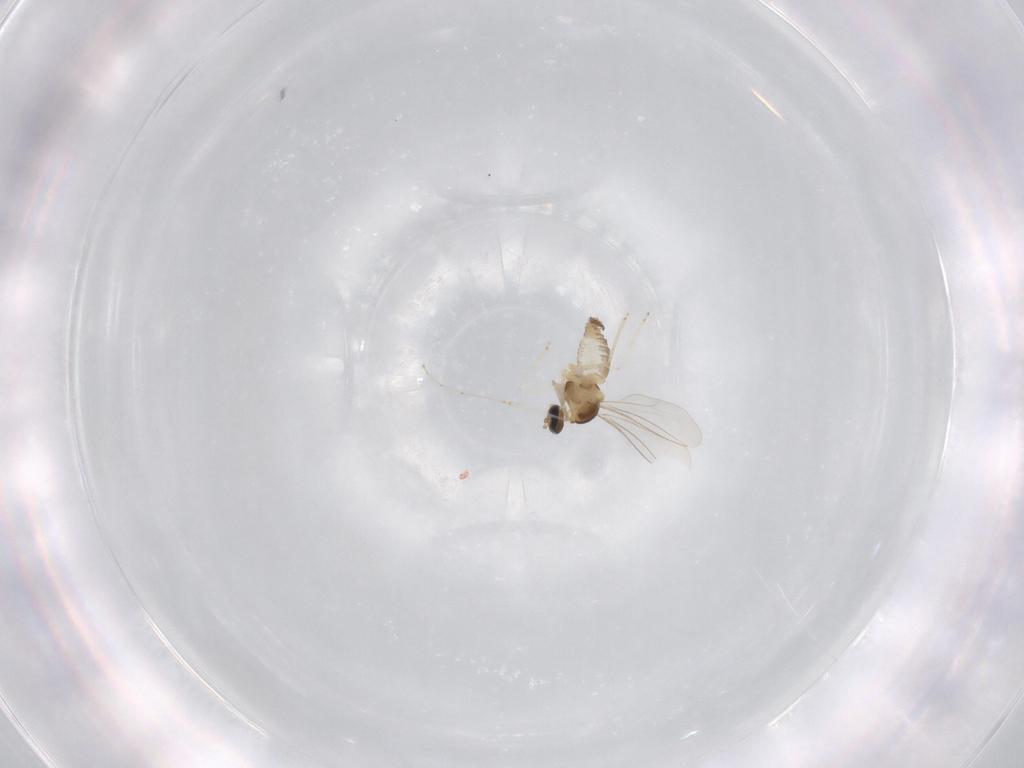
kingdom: Animalia
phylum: Arthropoda
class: Insecta
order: Diptera
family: Cecidomyiidae
